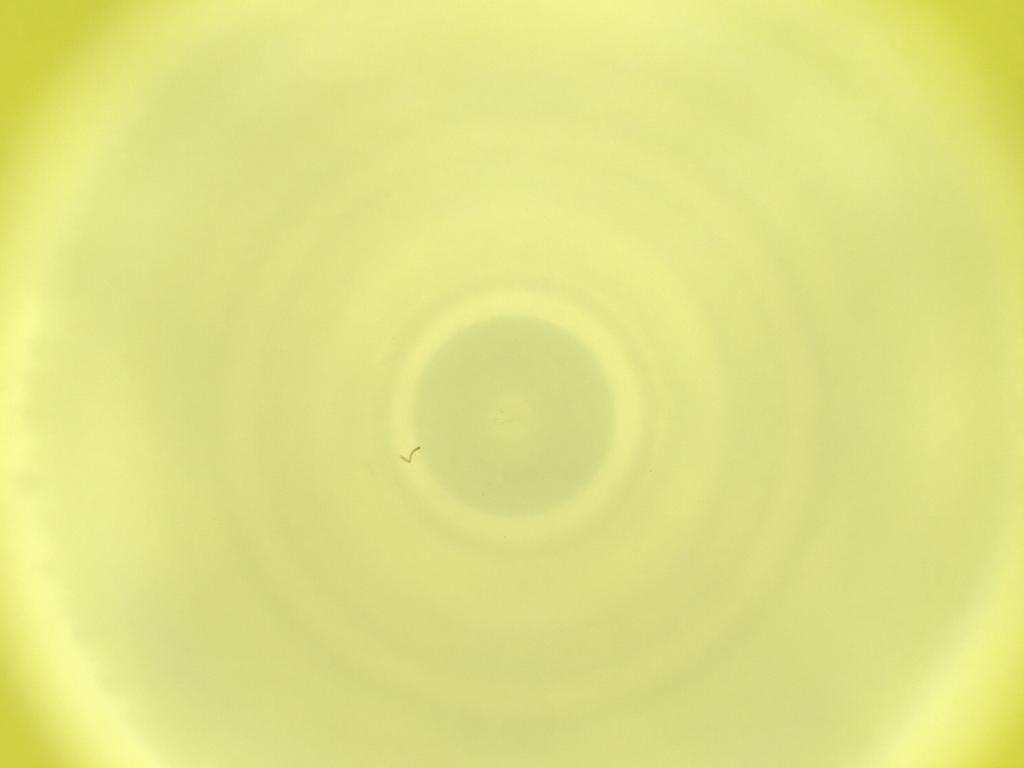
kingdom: Animalia
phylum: Arthropoda
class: Insecta
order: Diptera
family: Cecidomyiidae
